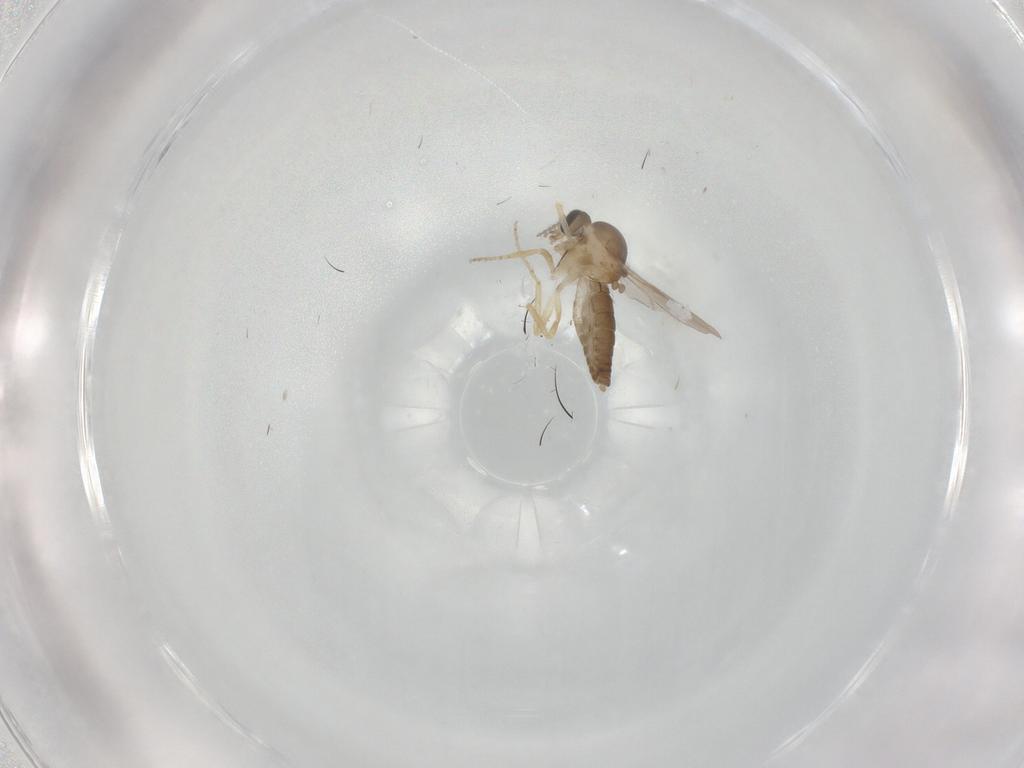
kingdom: Animalia
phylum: Arthropoda
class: Insecta
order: Diptera
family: Ceratopogonidae
